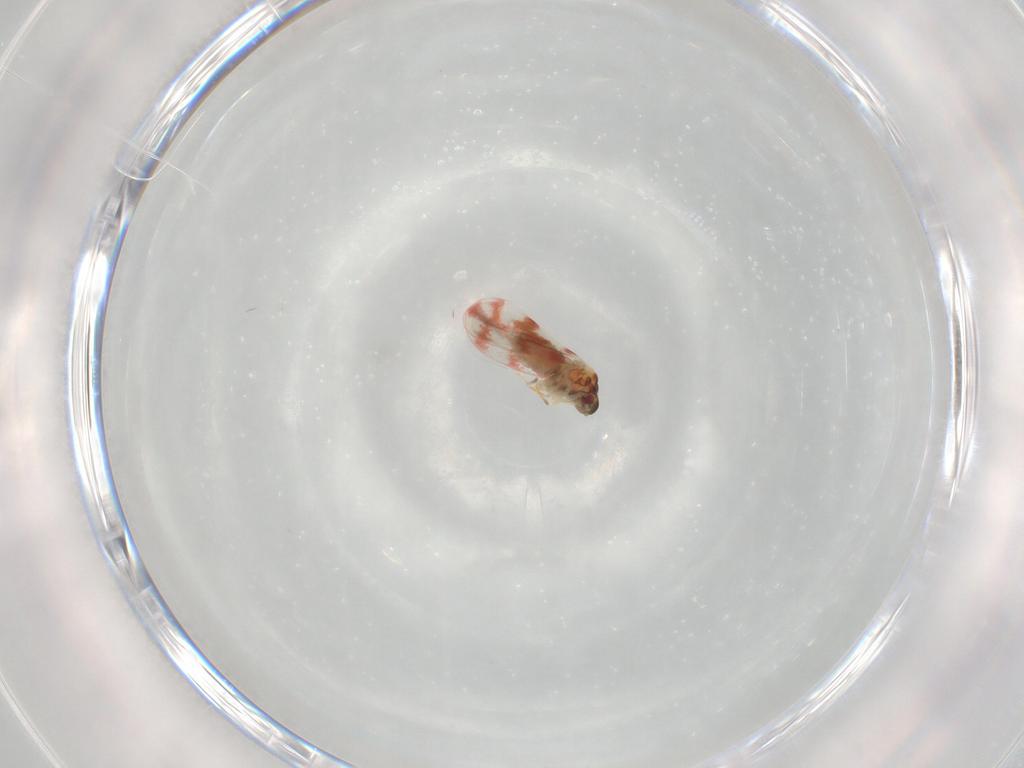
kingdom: Animalia
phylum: Arthropoda
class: Insecta
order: Hemiptera
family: Aleyrodidae
